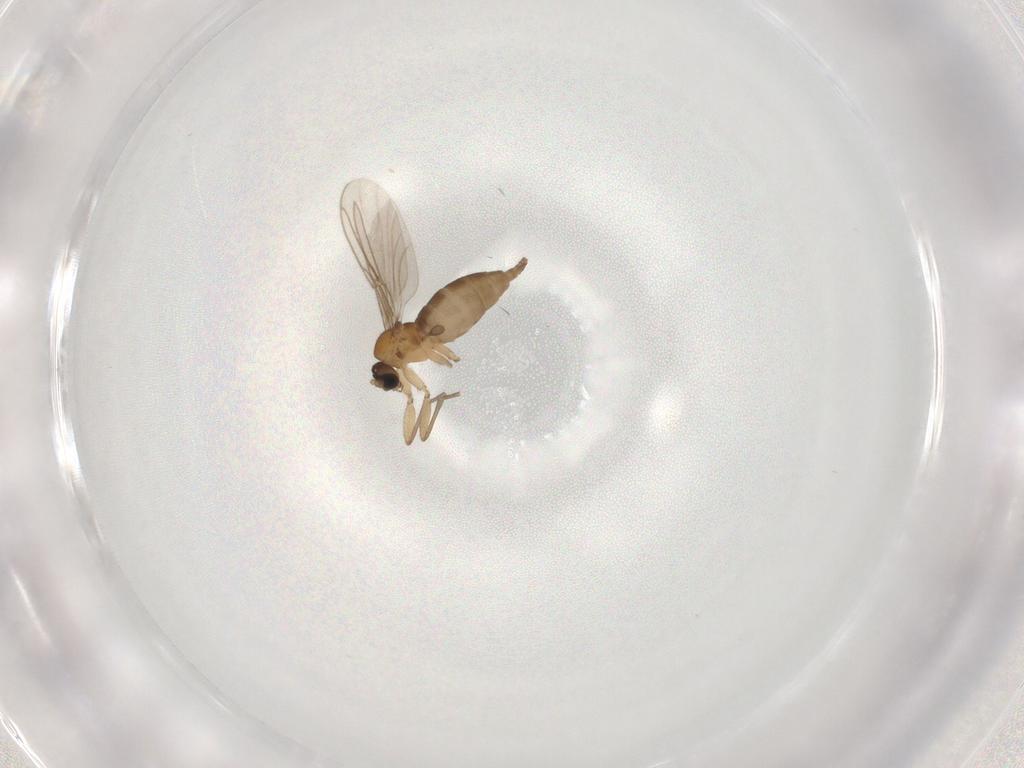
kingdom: Animalia
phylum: Arthropoda
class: Insecta
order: Diptera
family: Sciaridae
